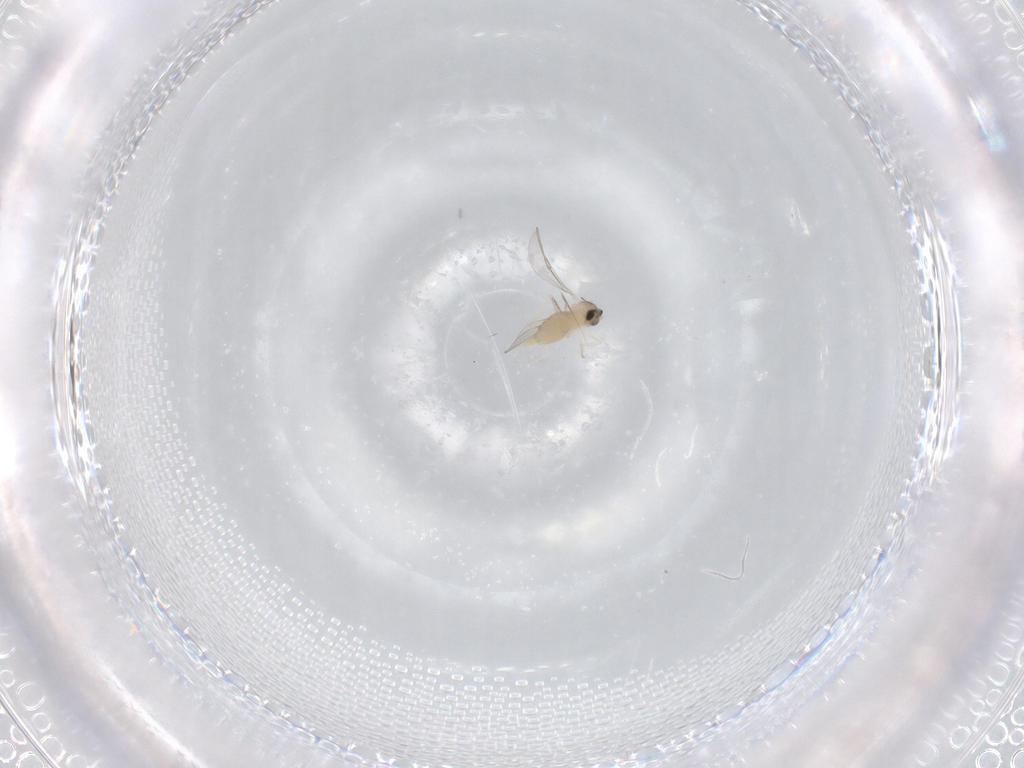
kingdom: Animalia
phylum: Arthropoda
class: Insecta
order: Diptera
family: Cecidomyiidae
